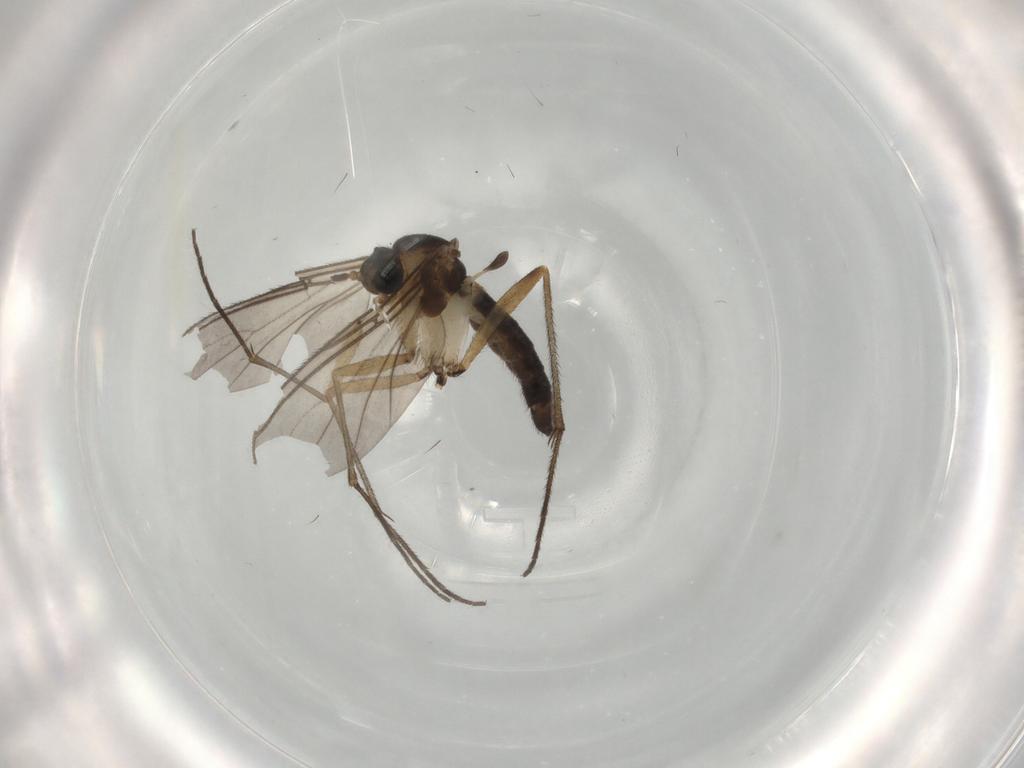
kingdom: Animalia
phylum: Arthropoda
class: Insecta
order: Diptera
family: Sciaridae
